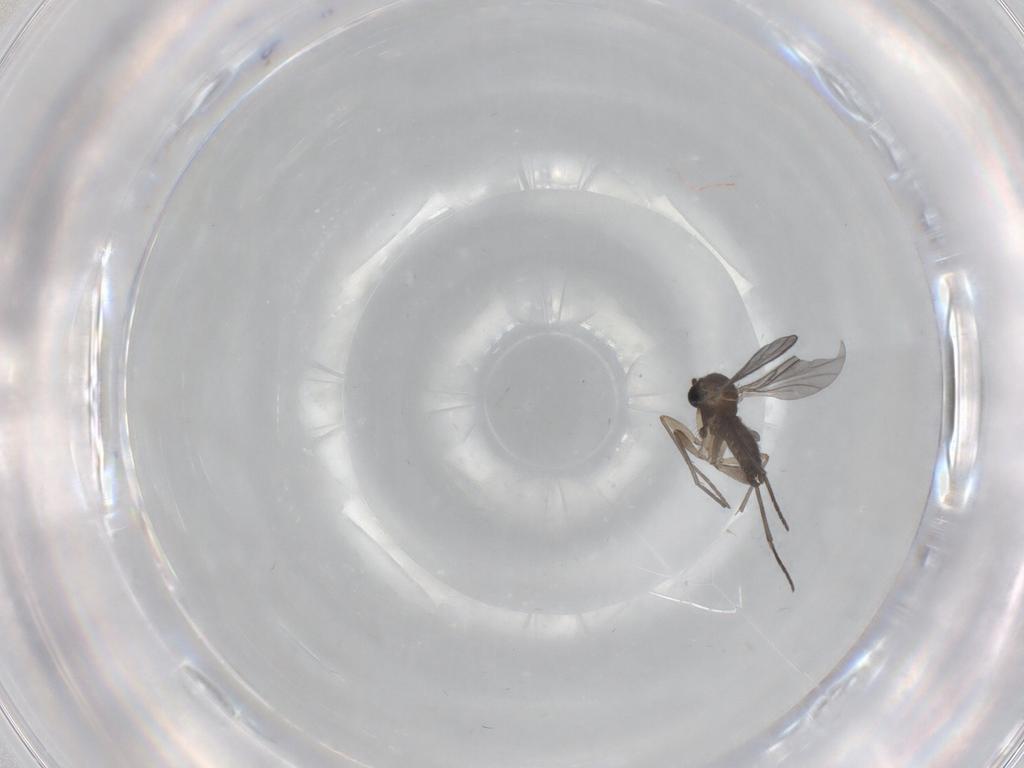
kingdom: Animalia
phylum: Arthropoda
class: Insecta
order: Diptera
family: Sciaridae
